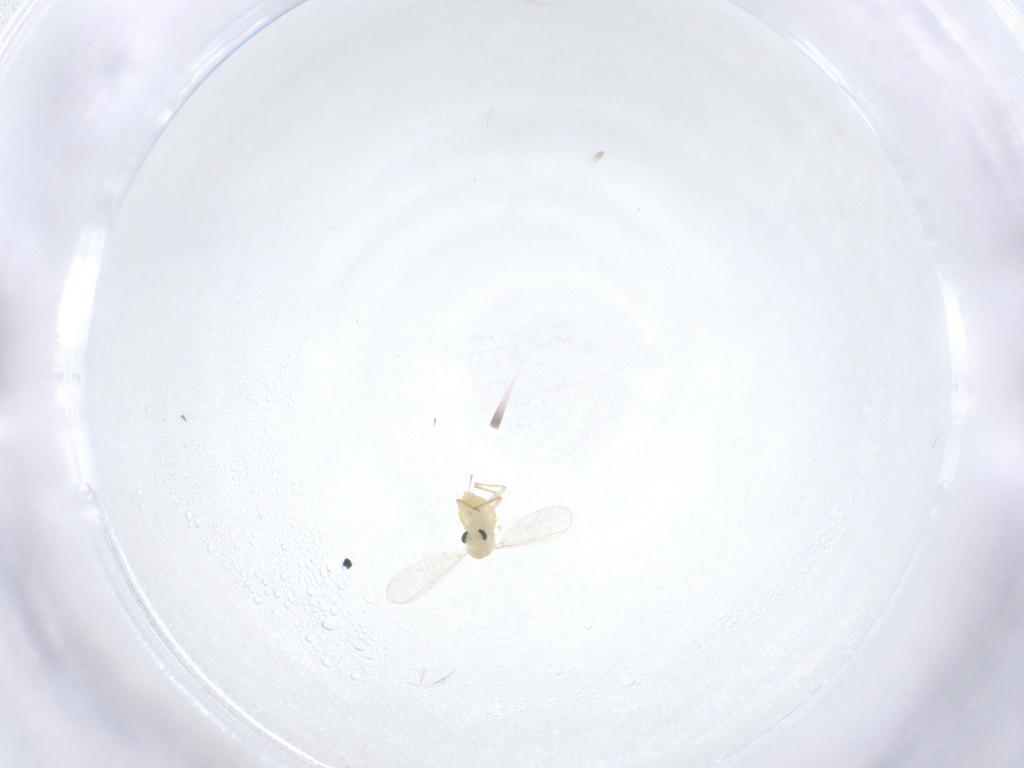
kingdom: Animalia
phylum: Arthropoda
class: Insecta
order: Diptera
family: Chironomidae
